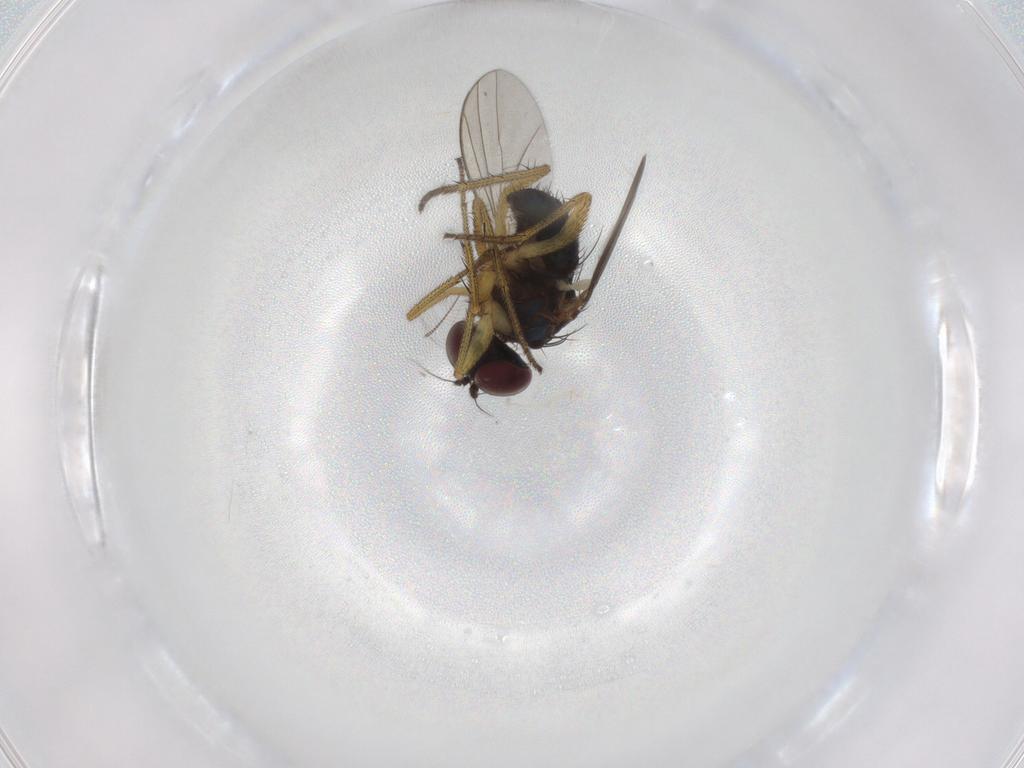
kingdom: Animalia
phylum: Arthropoda
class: Insecta
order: Diptera
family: Dolichopodidae
